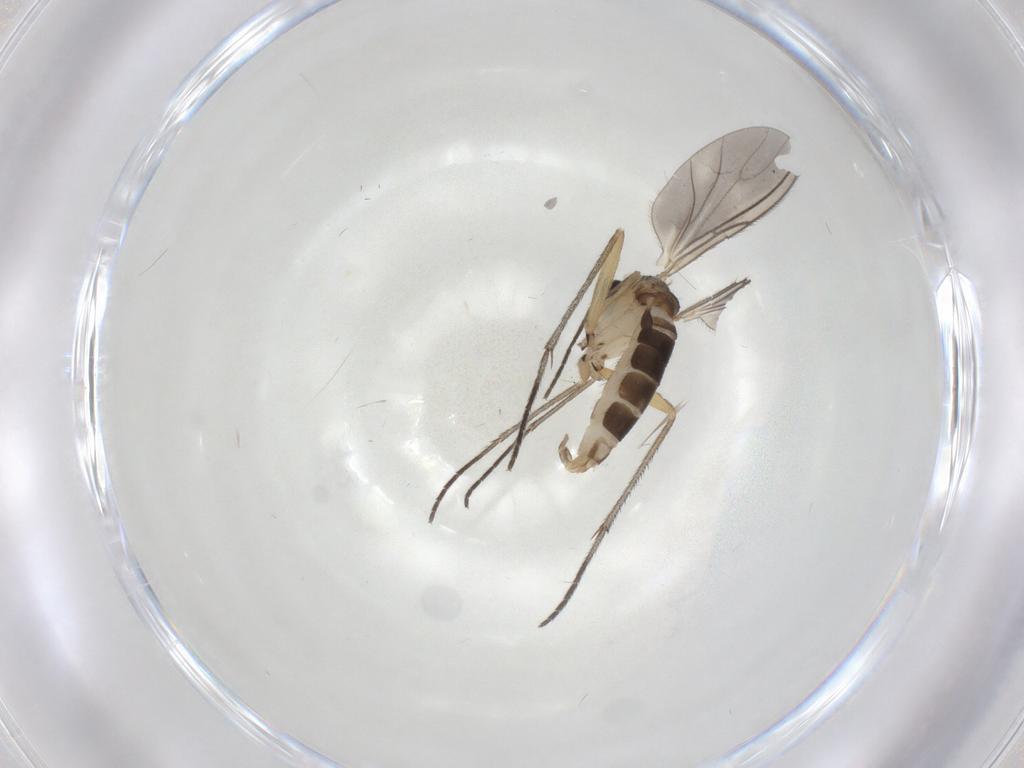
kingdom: Animalia
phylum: Arthropoda
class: Insecta
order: Diptera
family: Sciaridae
